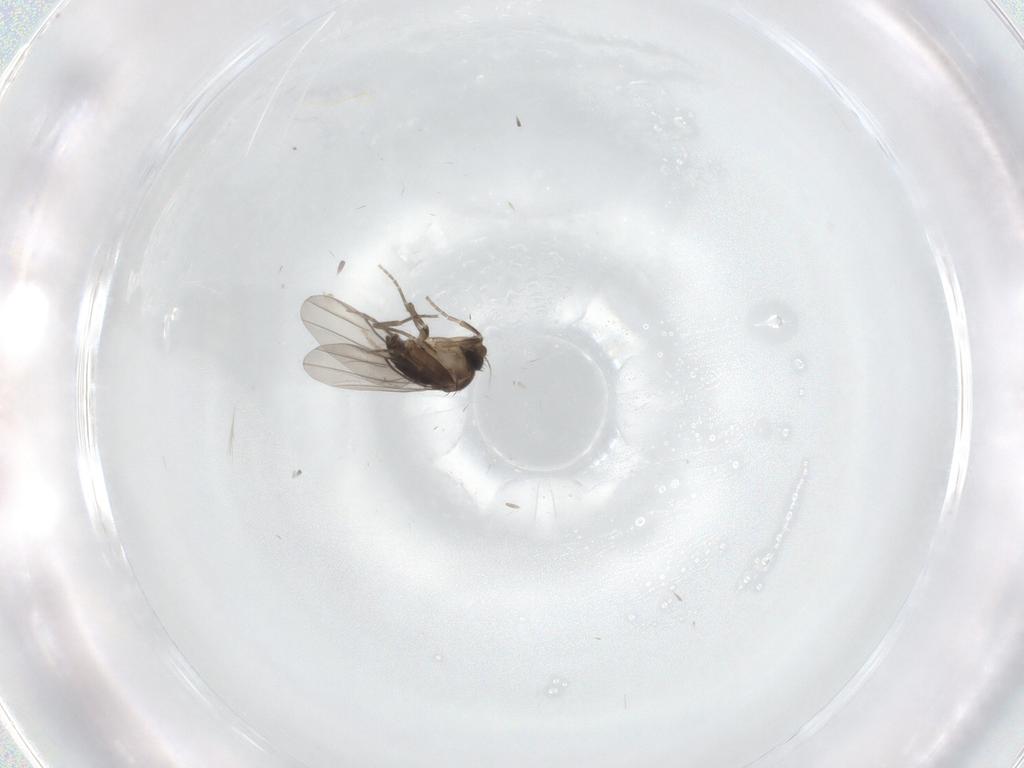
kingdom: Animalia
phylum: Arthropoda
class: Insecta
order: Diptera
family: Chironomidae
